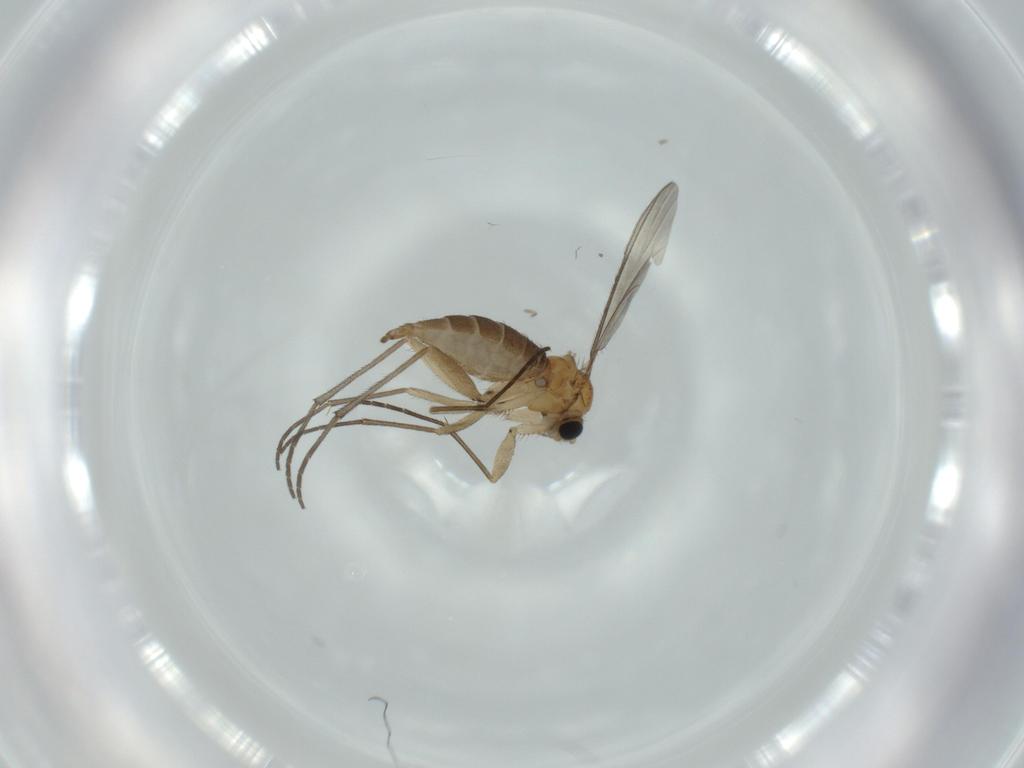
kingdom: Animalia
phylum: Arthropoda
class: Insecta
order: Diptera
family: Sciaridae
